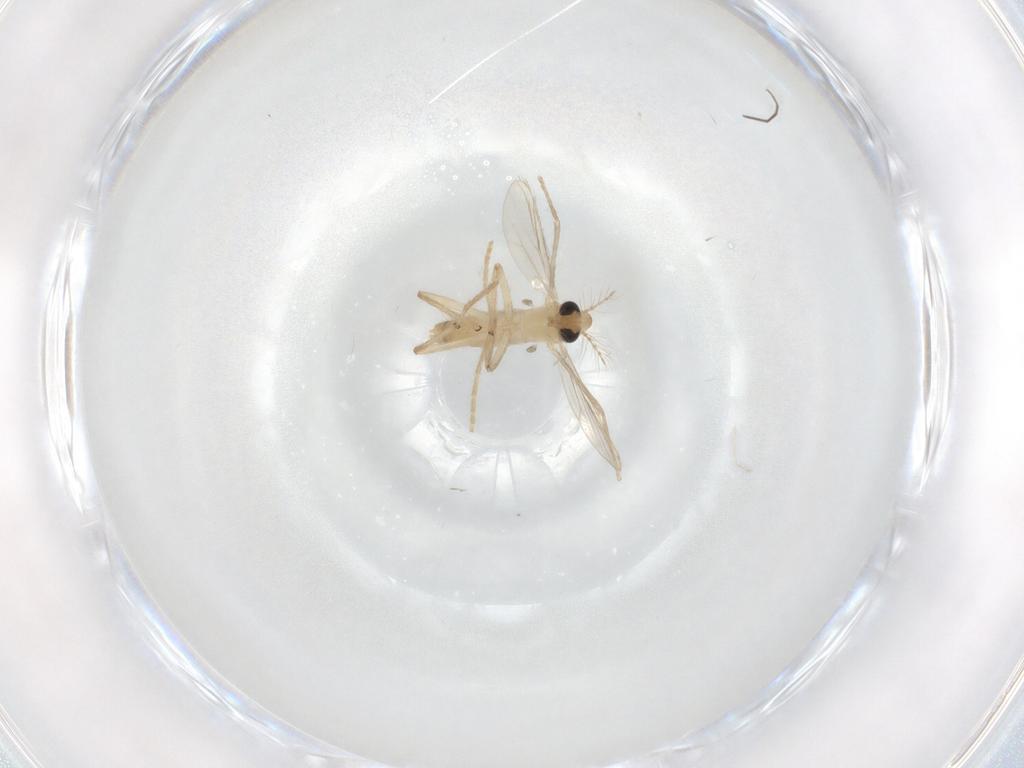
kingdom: Animalia
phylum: Arthropoda
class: Insecta
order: Diptera
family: Chironomidae
